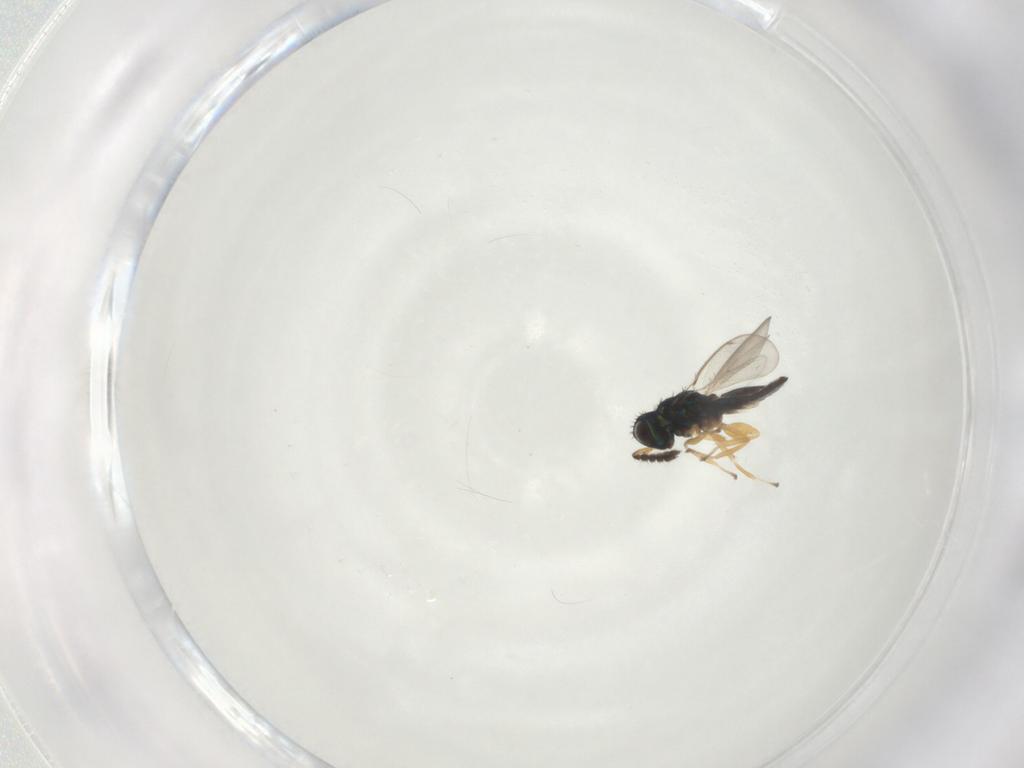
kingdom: Animalia
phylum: Arthropoda
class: Insecta
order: Hymenoptera
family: Eulophidae
